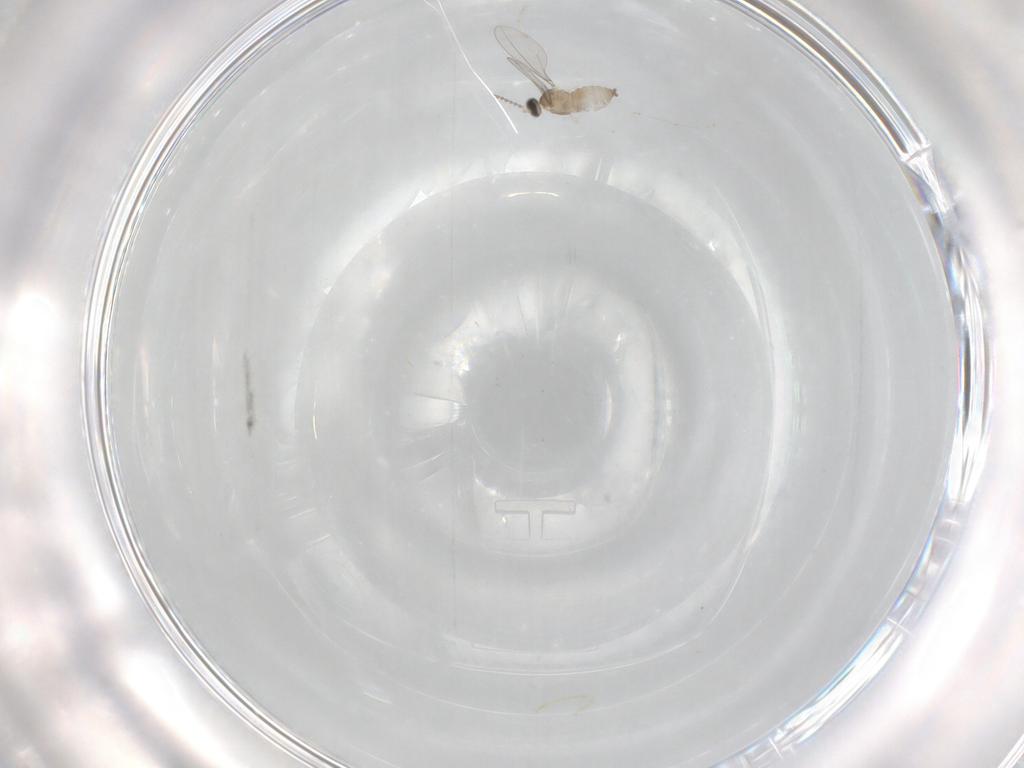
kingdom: Animalia
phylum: Arthropoda
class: Insecta
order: Diptera
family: Cecidomyiidae
